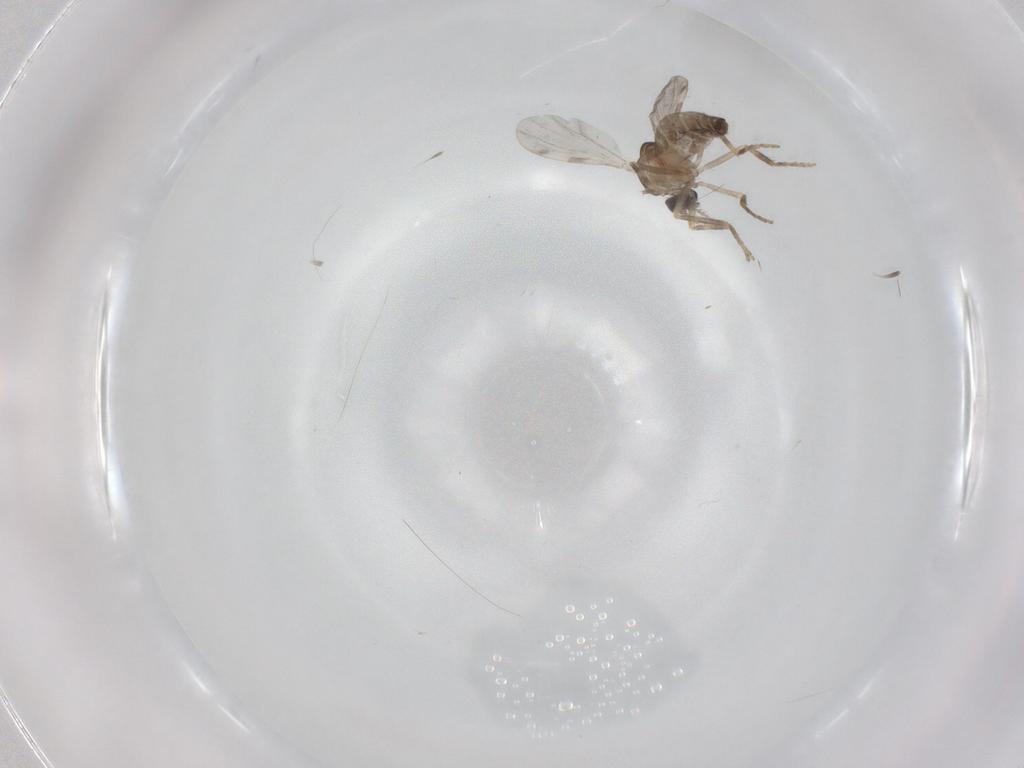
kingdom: Animalia
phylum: Arthropoda
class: Insecta
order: Diptera
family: Ceratopogonidae
